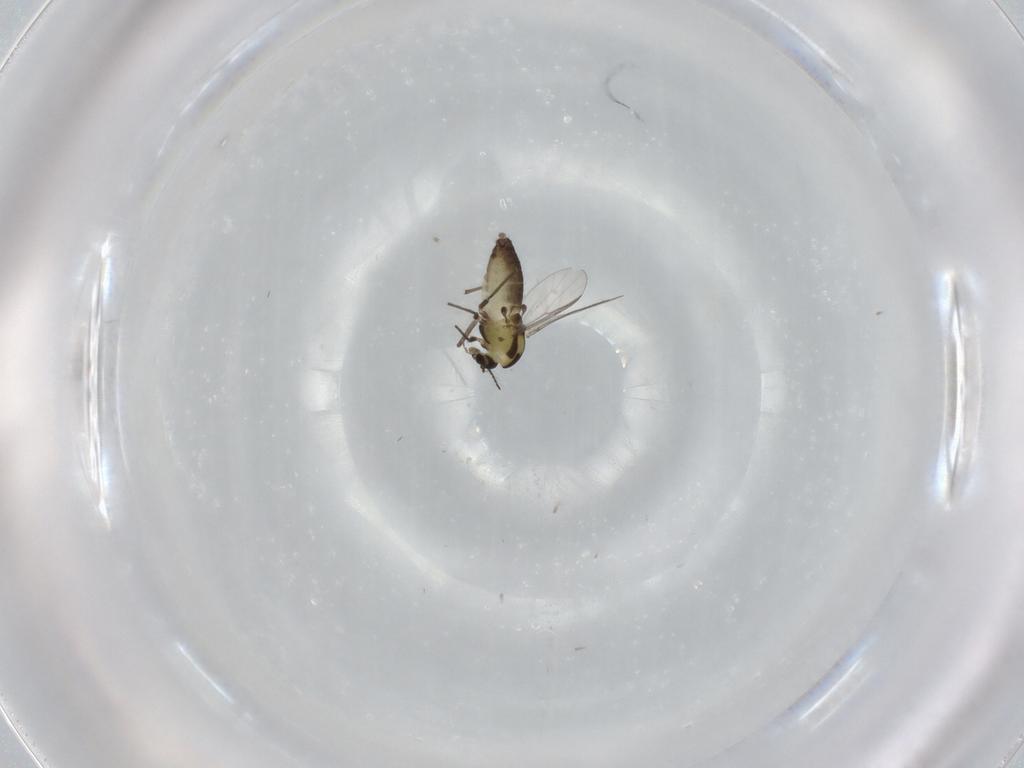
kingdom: Animalia
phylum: Arthropoda
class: Insecta
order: Diptera
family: Chironomidae
